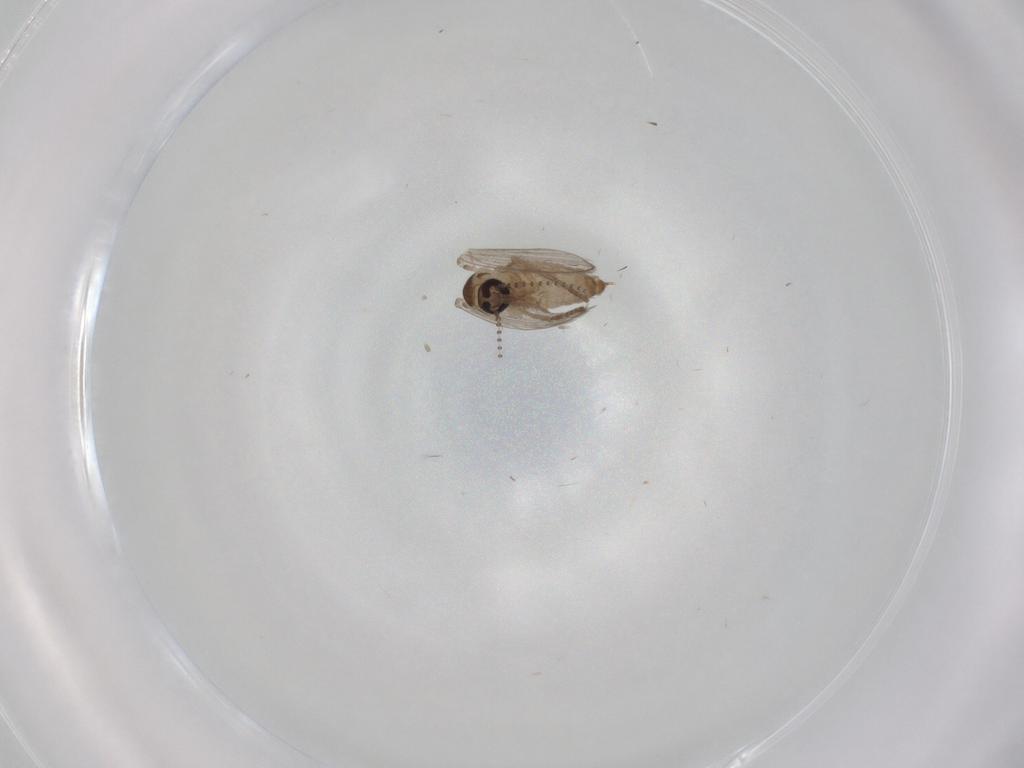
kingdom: Animalia
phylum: Arthropoda
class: Insecta
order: Diptera
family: Psychodidae
